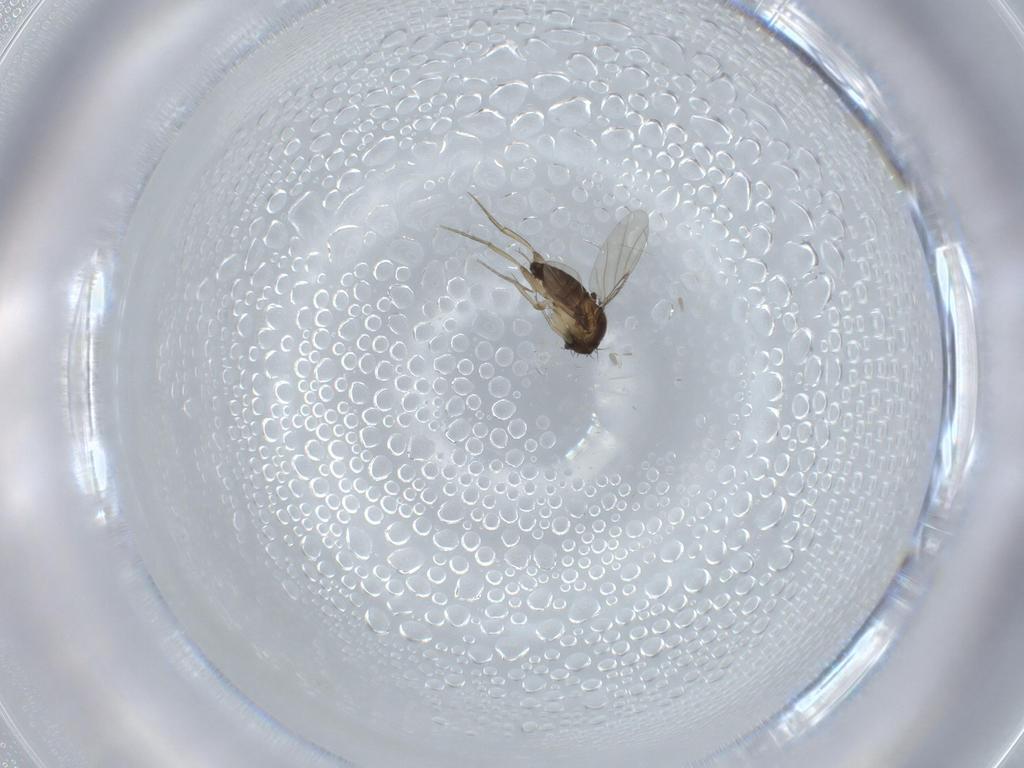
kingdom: Animalia
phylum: Arthropoda
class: Insecta
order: Diptera
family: Phoridae
